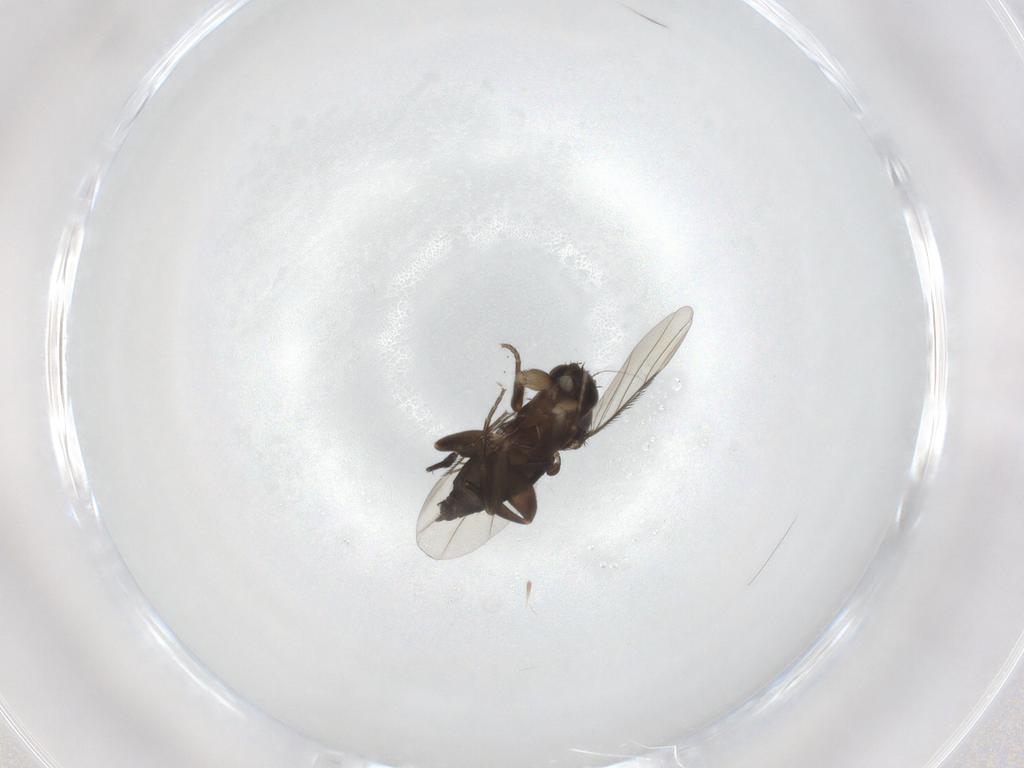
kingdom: Animalia
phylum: Arthropoda
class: Insecta
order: Diptera
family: Phoridae
